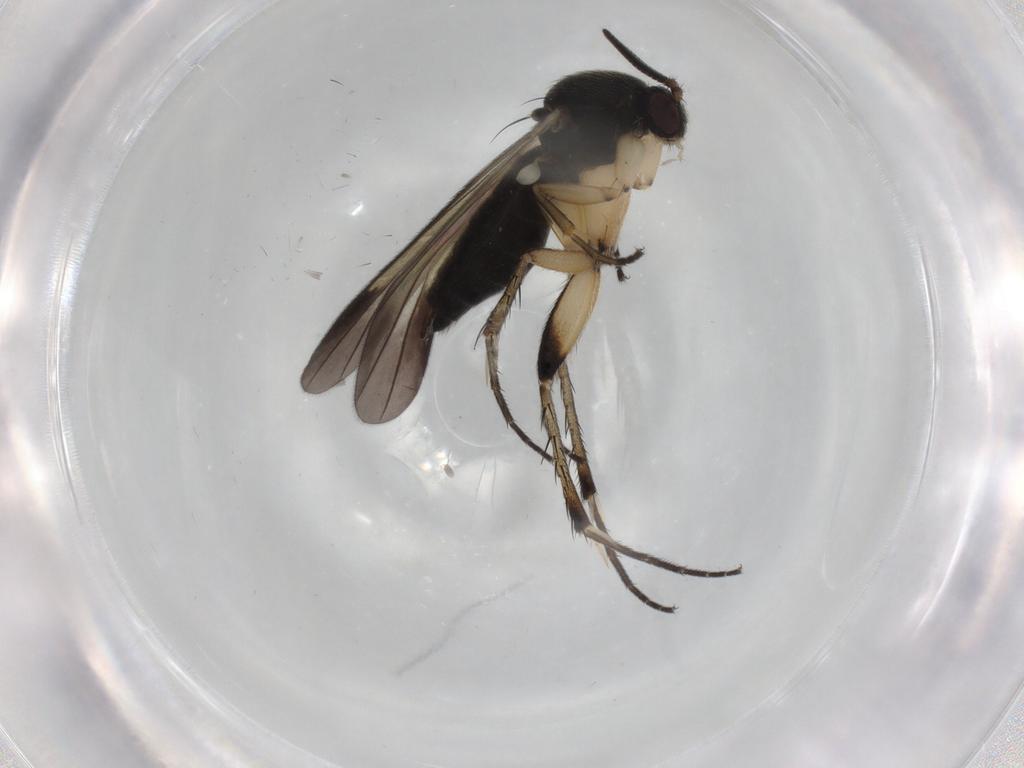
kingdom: Animalia
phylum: Arthropoda
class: Insecta
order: Diptera
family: Mycetophilidae
